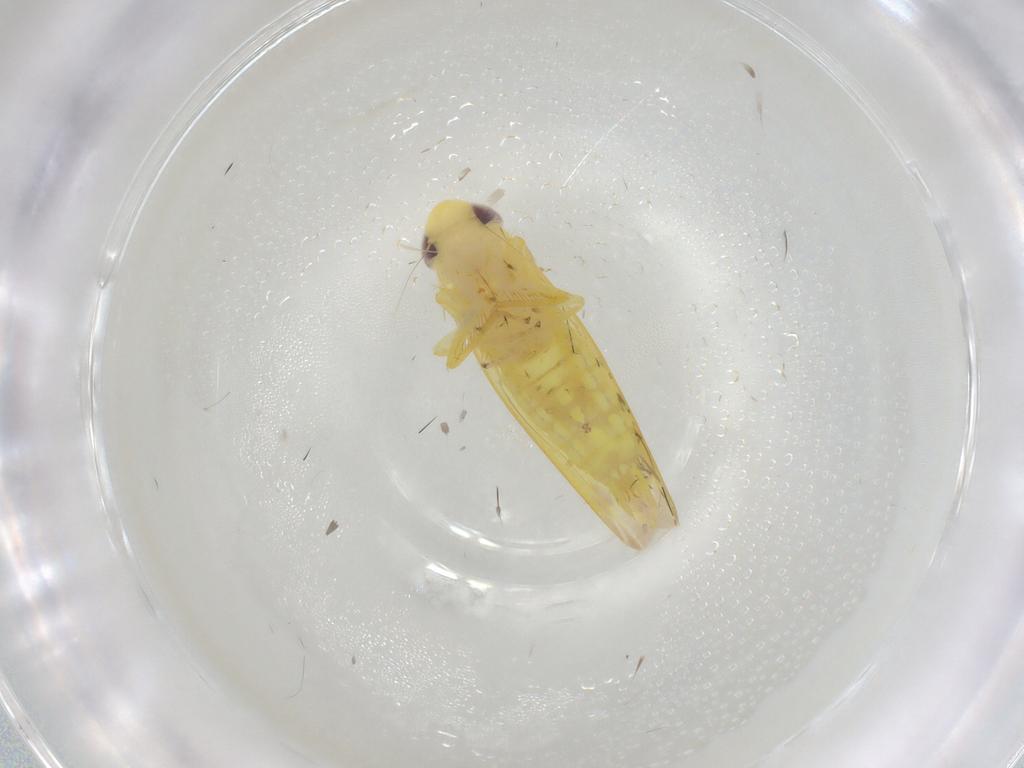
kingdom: Animalia
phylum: Arthropoda
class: Insecta
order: Hemiptera
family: Cicadellidae
